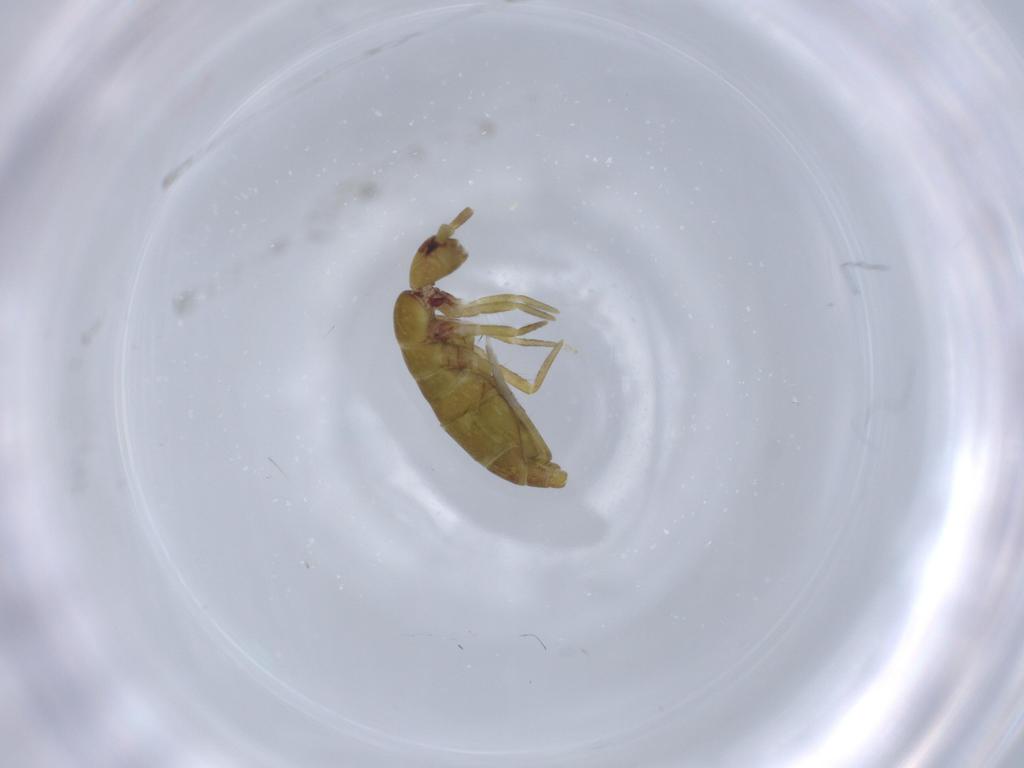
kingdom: Animalia
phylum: Arthropoda
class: Collembola
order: Entomobryomorpha
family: Tomoceridae
